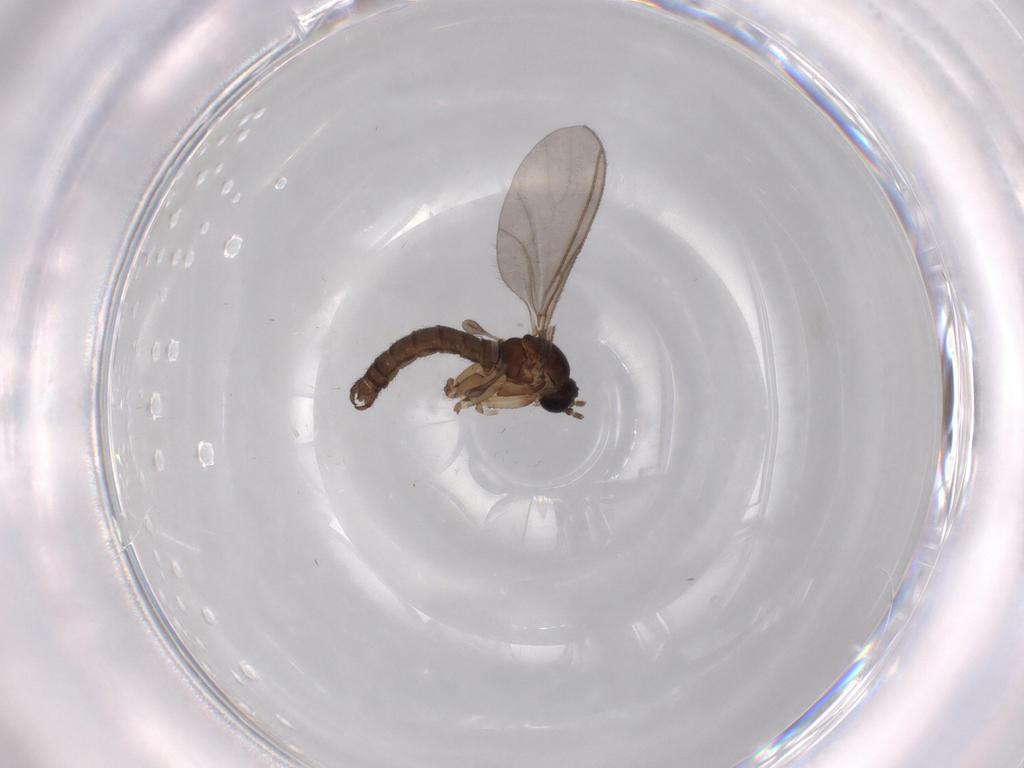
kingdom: Animalia
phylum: Arthropoda
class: Insecta
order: Diptera
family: Sciaridae
